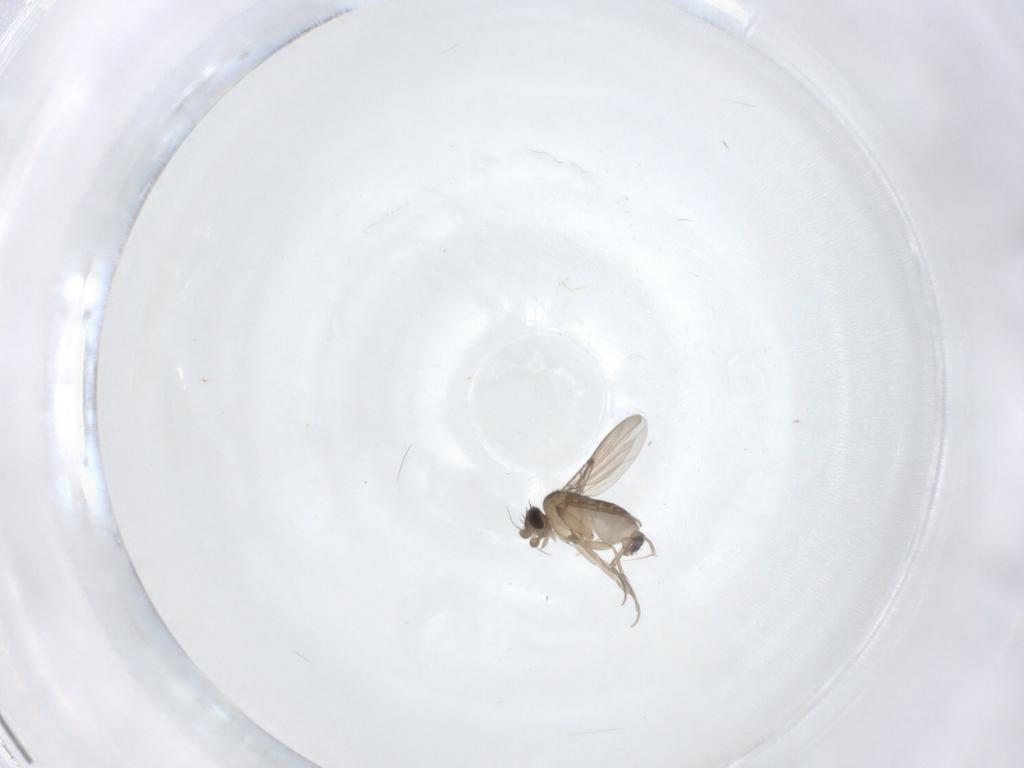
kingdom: Animalia
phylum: Arthropoda
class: Insecta
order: Diptera
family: Phoridae
